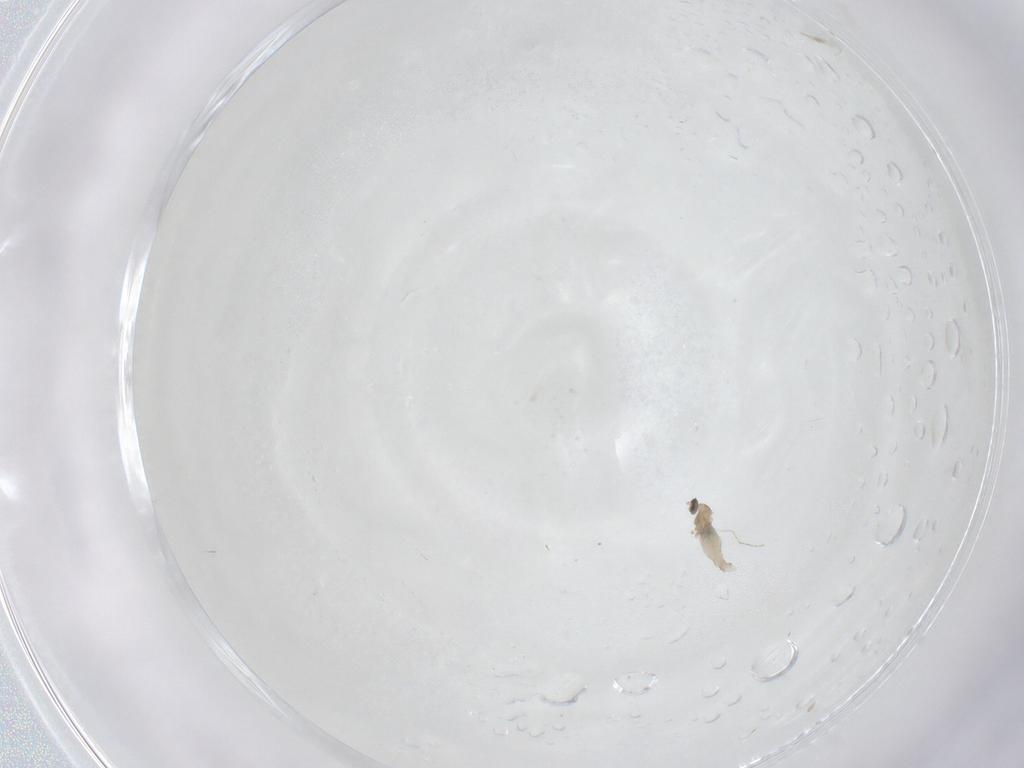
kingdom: Animalia
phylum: Arthropoda
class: Insecta
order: Diptera
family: Cecidomyiidae
